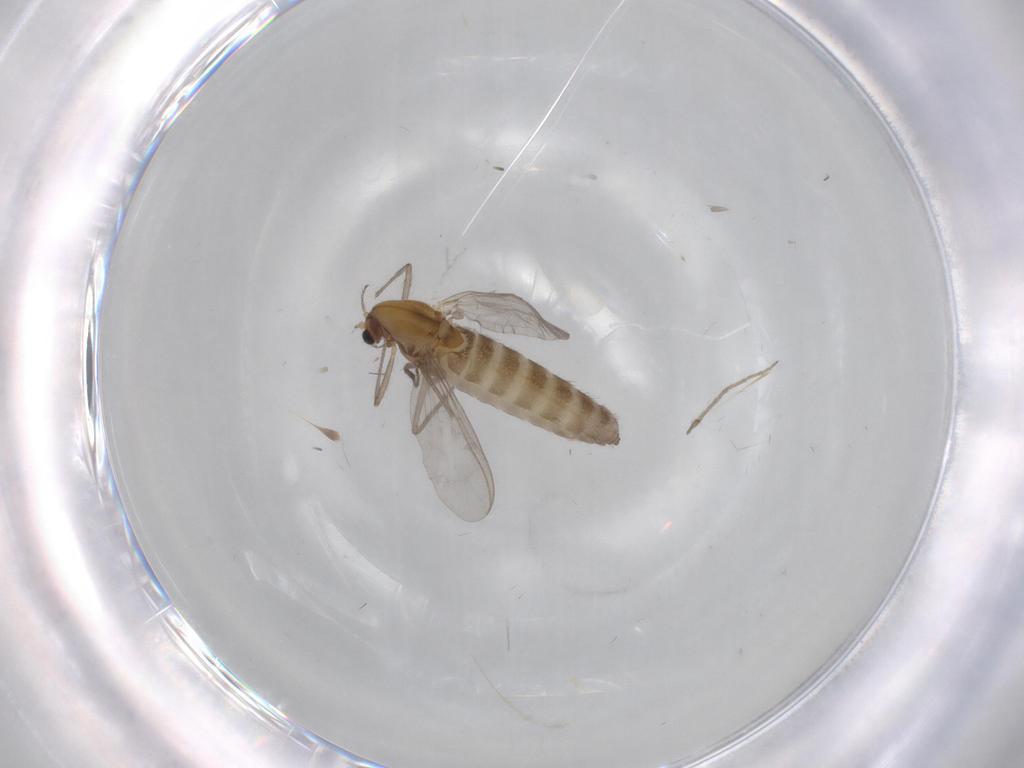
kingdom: Animalia
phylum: Arthropoda
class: Insecta
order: Diptera
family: Chironomidae
